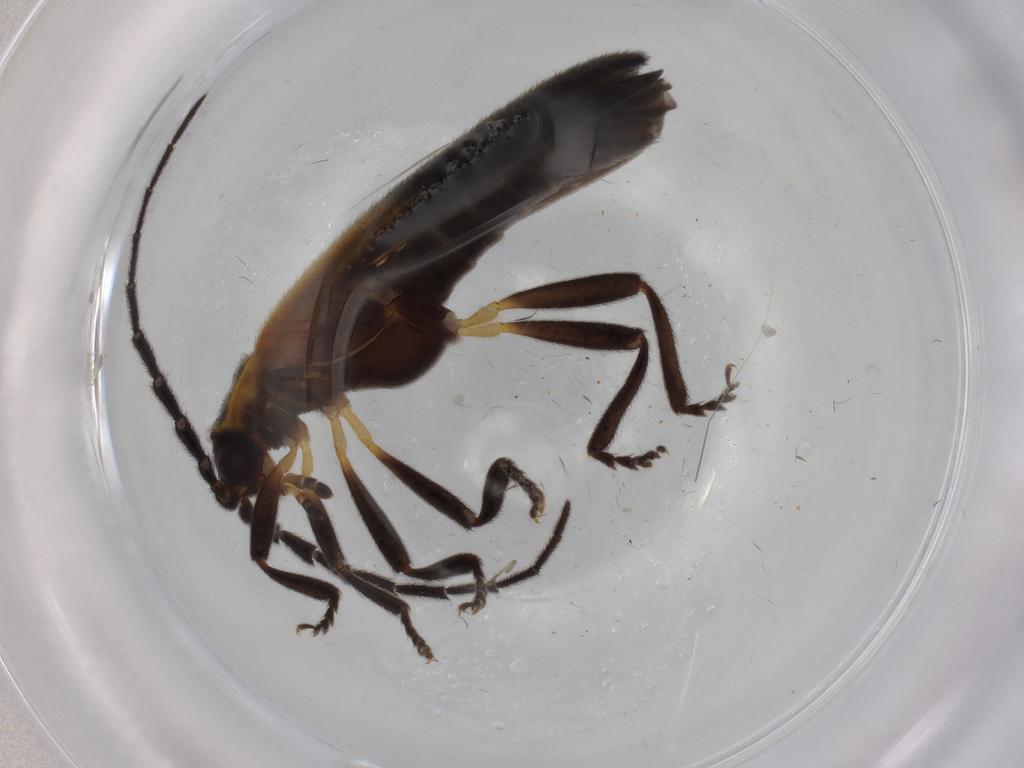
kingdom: Animalia
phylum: Arthropoda
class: Insecta
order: Coleoptera
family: Lycidae
